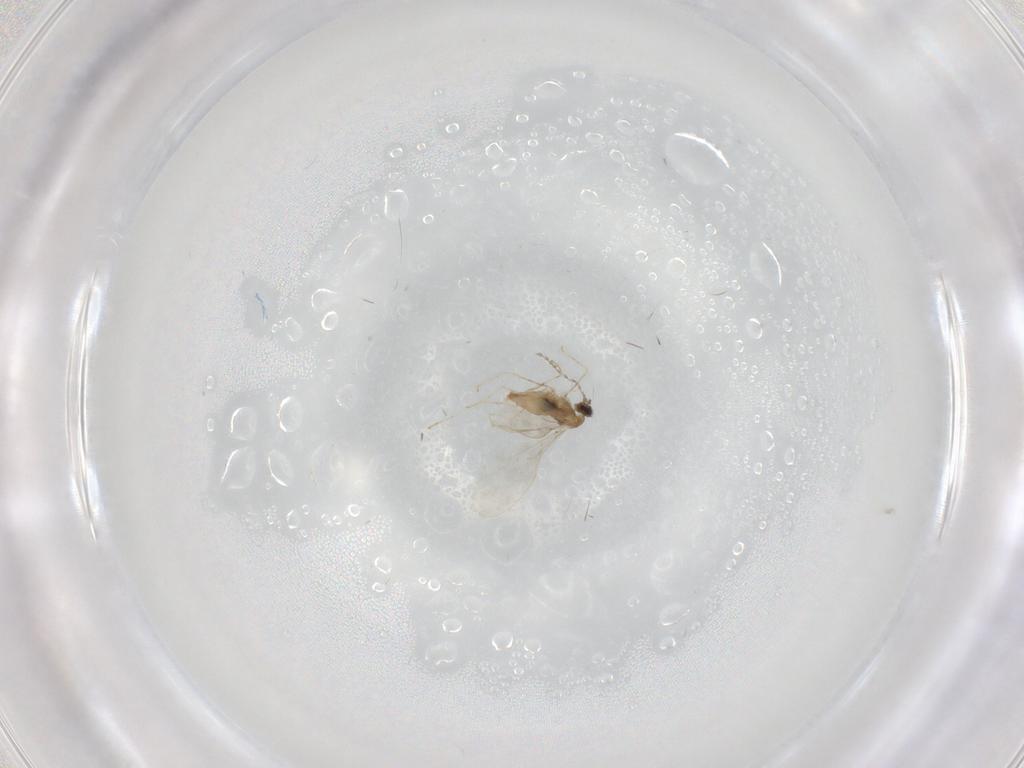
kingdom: Animalia
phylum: Arthropoda
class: Insecta
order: Diptera
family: Cecidomyiidae
